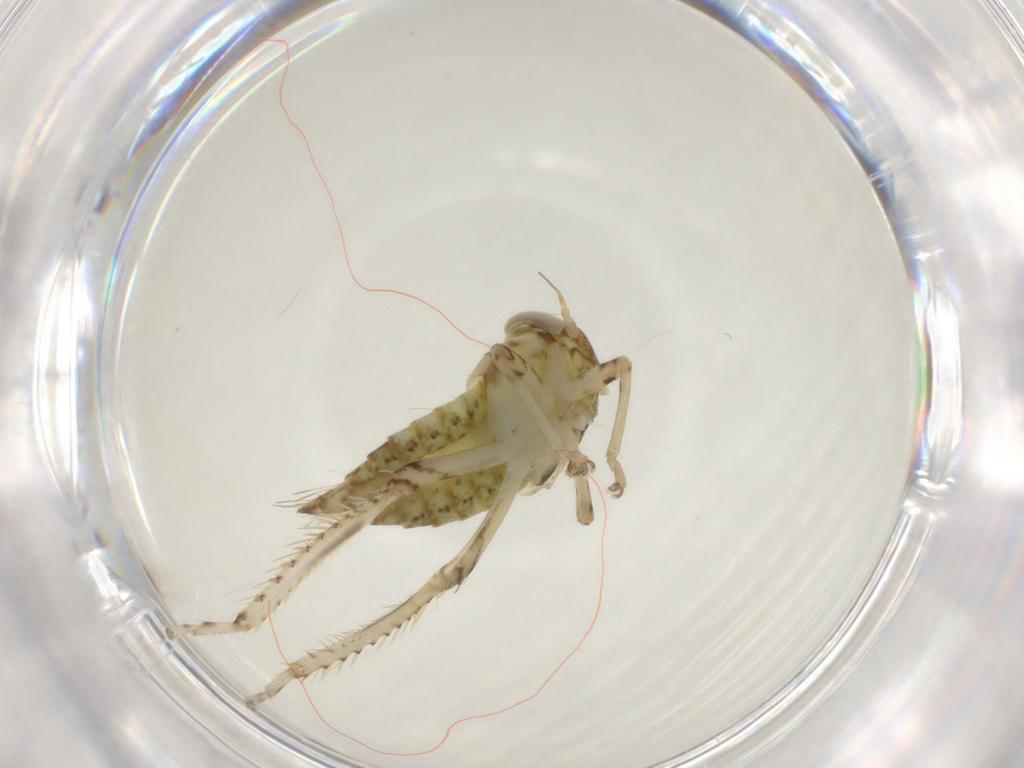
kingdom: Animalia
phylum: Arthropoda
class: Insecta
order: Hemiptera
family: Cicadellidae
